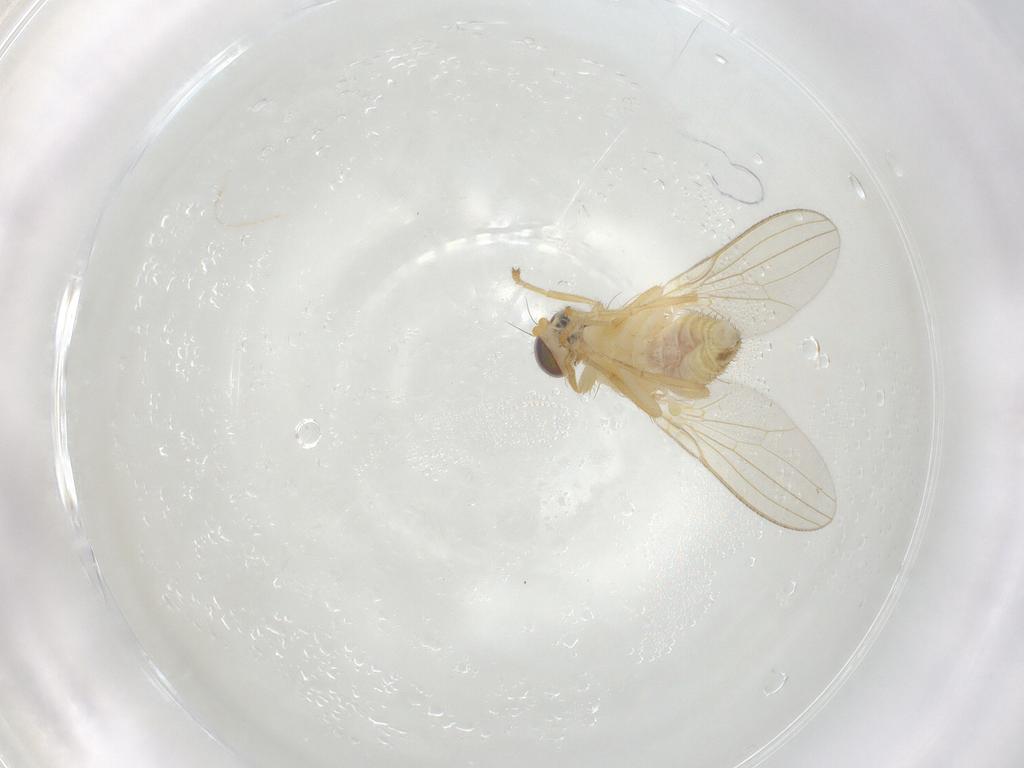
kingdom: Animalia
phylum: Arthropoda
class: Insecta
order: Diptera
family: Chyromyidae
